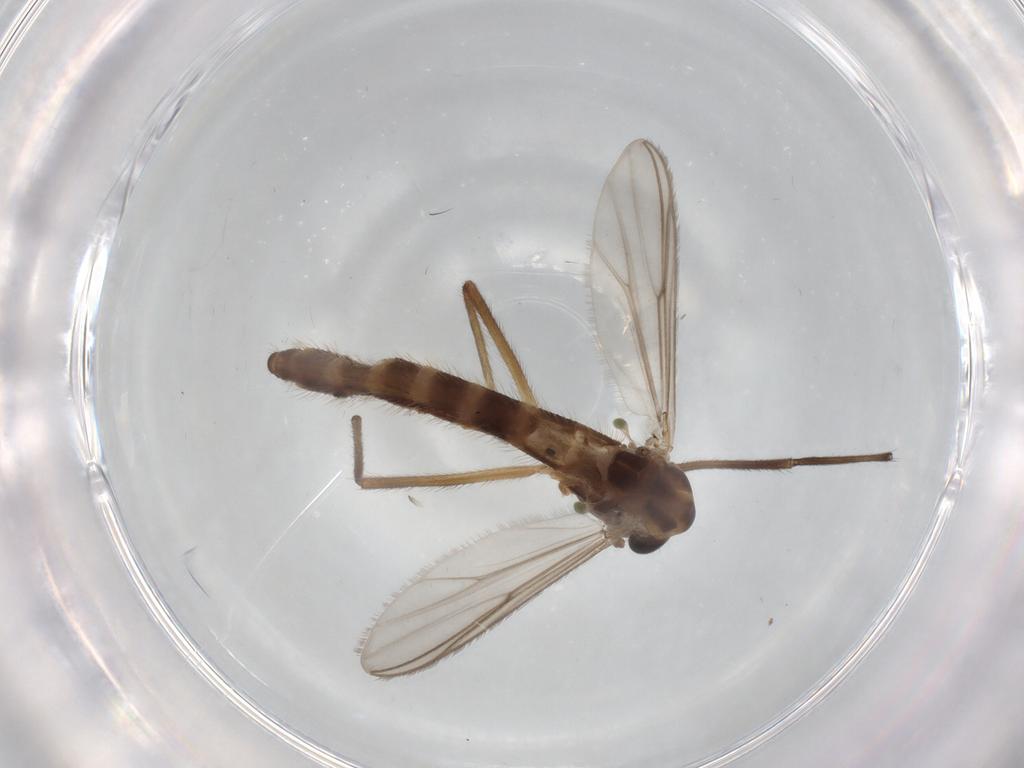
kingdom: Animalia
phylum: Arthropoda
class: Insecta
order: Diptera
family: Chironomidae
